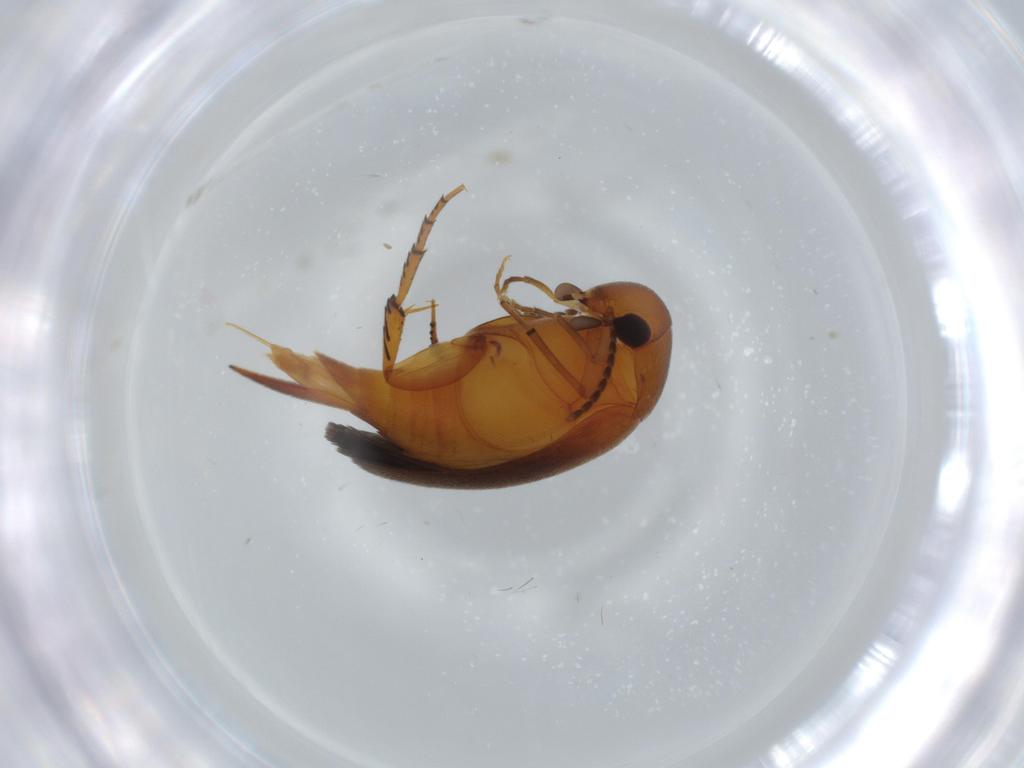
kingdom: Animalia
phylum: Arthropoda
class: Insecta
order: Coleoptera
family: Mordellidae
